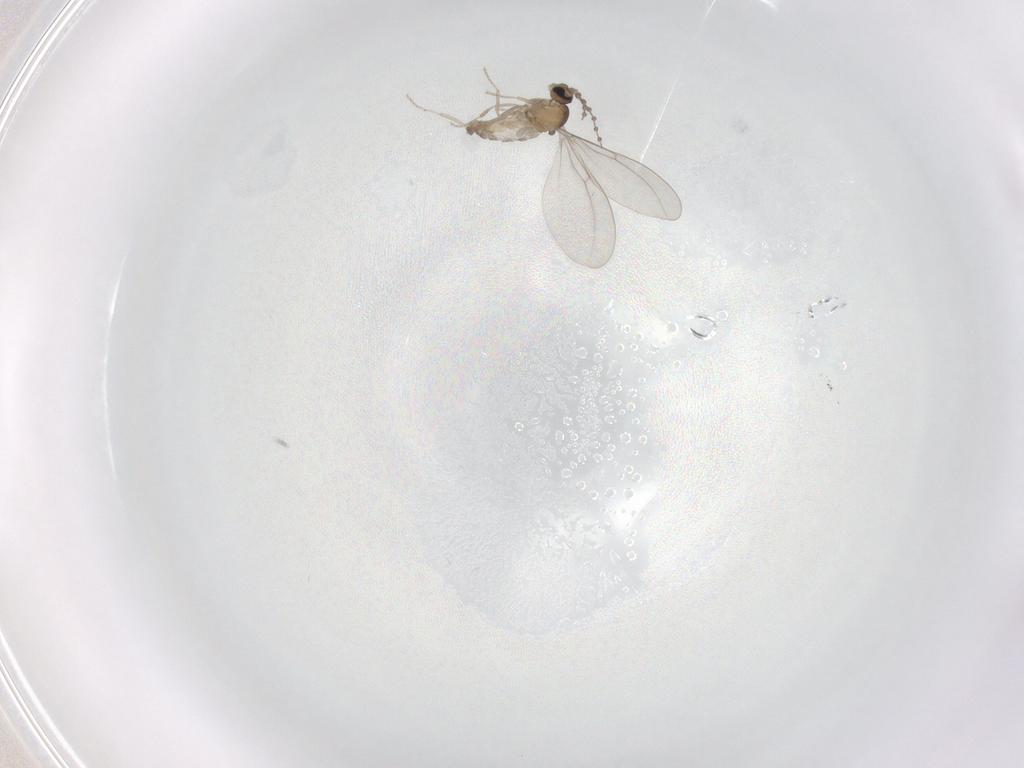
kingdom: Animalia
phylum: Arthropoda
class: Insecta
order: Diptera
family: Cecidomyiidae
